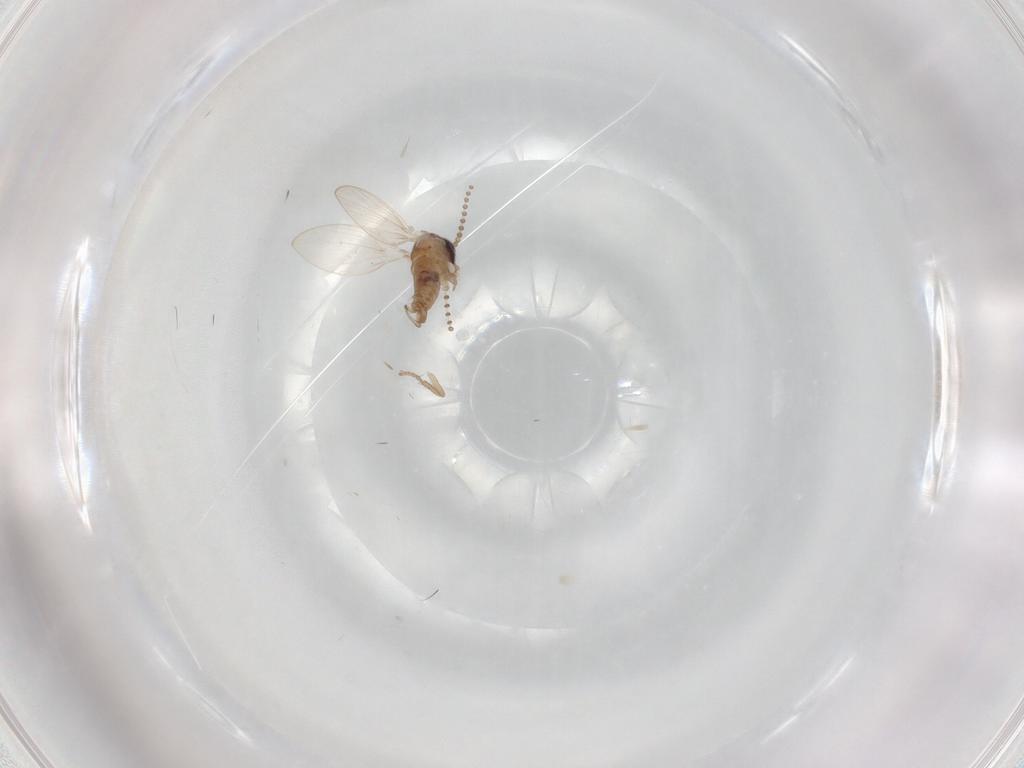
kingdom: Animalia
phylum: Arthropoda
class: Insecta
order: Diptera
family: Psychodidae
